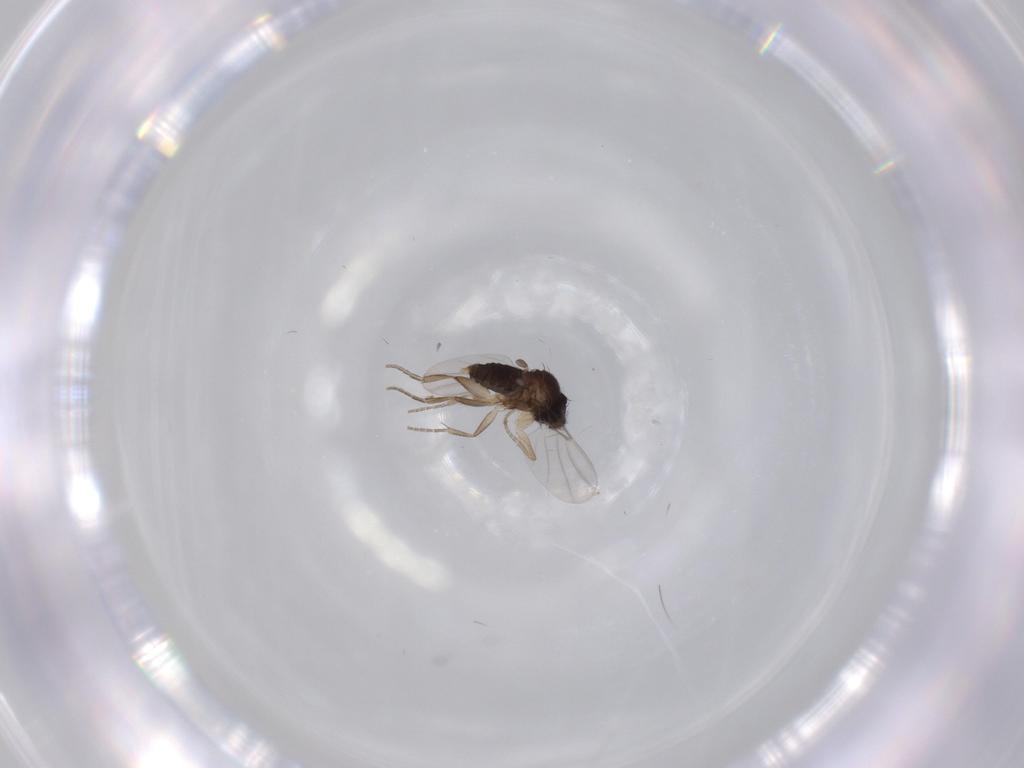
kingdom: Animalia
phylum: Arthropoda
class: Insecta
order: Diptera
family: Phoridae
